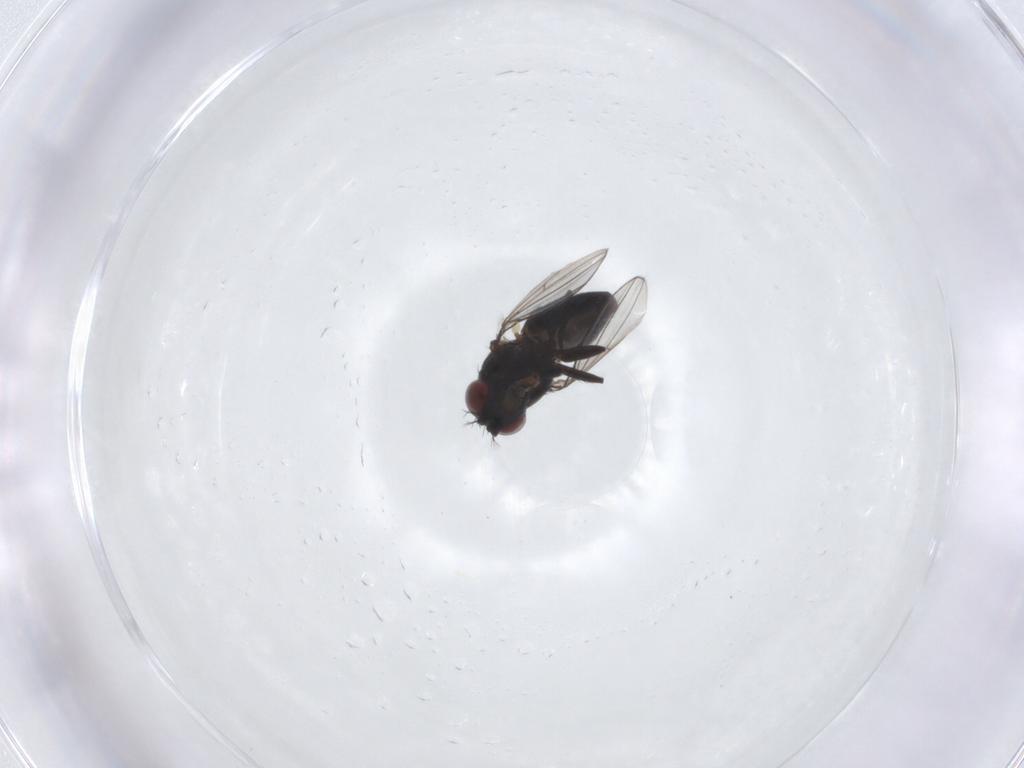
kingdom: Animalia
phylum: Arthropoda
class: Insecta
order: Diptera
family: Ephydridae
